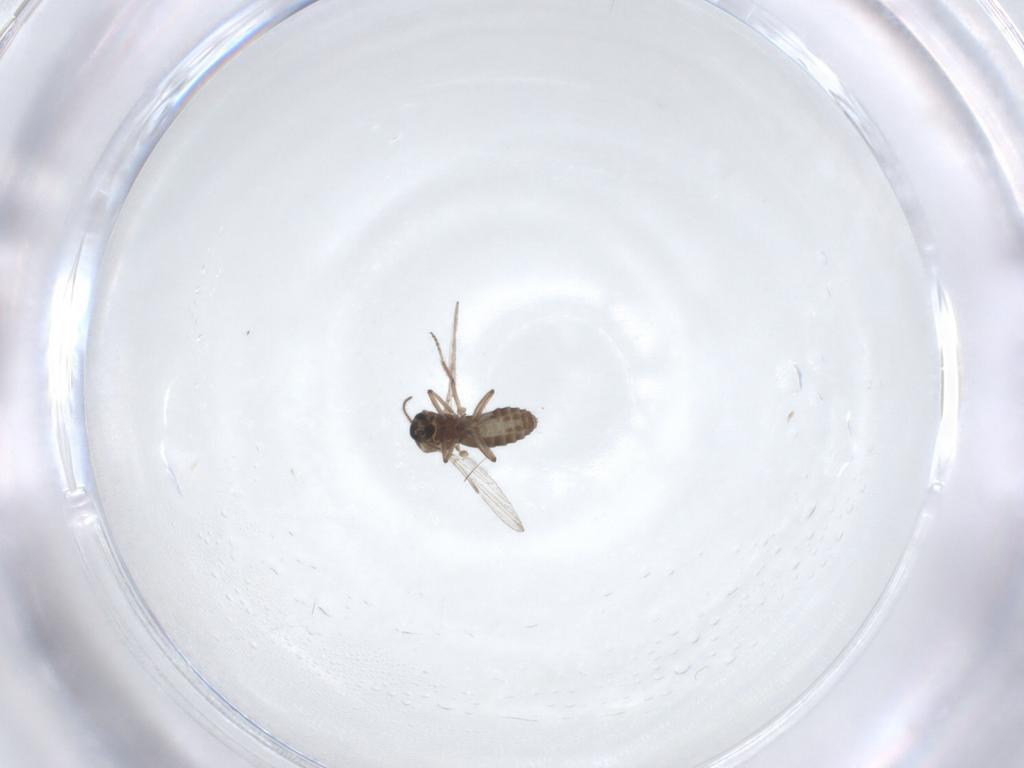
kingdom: Animalia
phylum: Arthropoda
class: Insecta
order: Diptera
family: Ceratopogonidae
